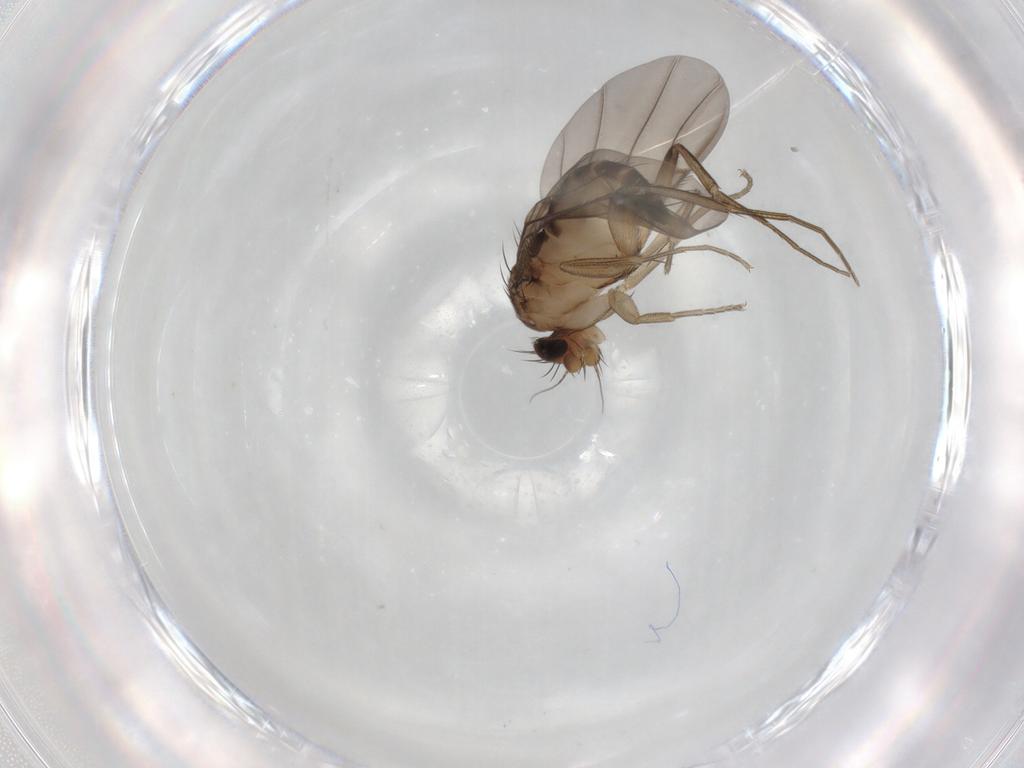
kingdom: Animalia
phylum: Arthropoda
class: Insecta
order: Diptera
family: Phoridae
